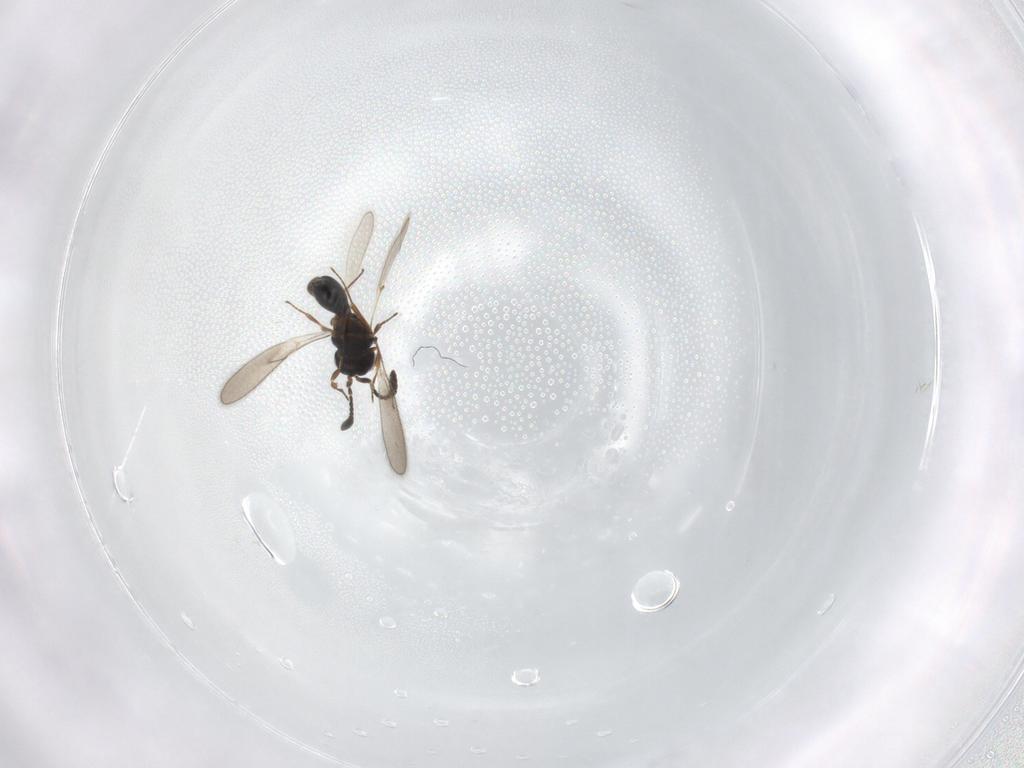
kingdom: Animalia
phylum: Arthropoda
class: Insecta
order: Hymenoptera
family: Scelionidae
